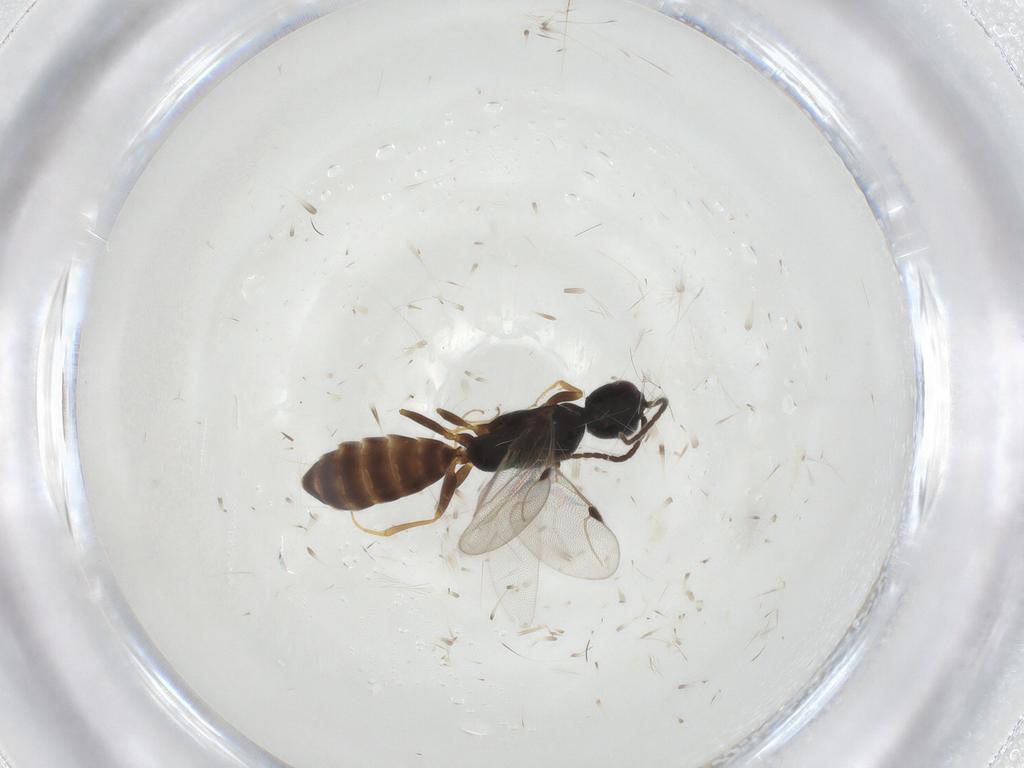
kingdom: Animalia
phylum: Arthropoda
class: Insecta
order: Hymenoptera
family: Bethylidae
